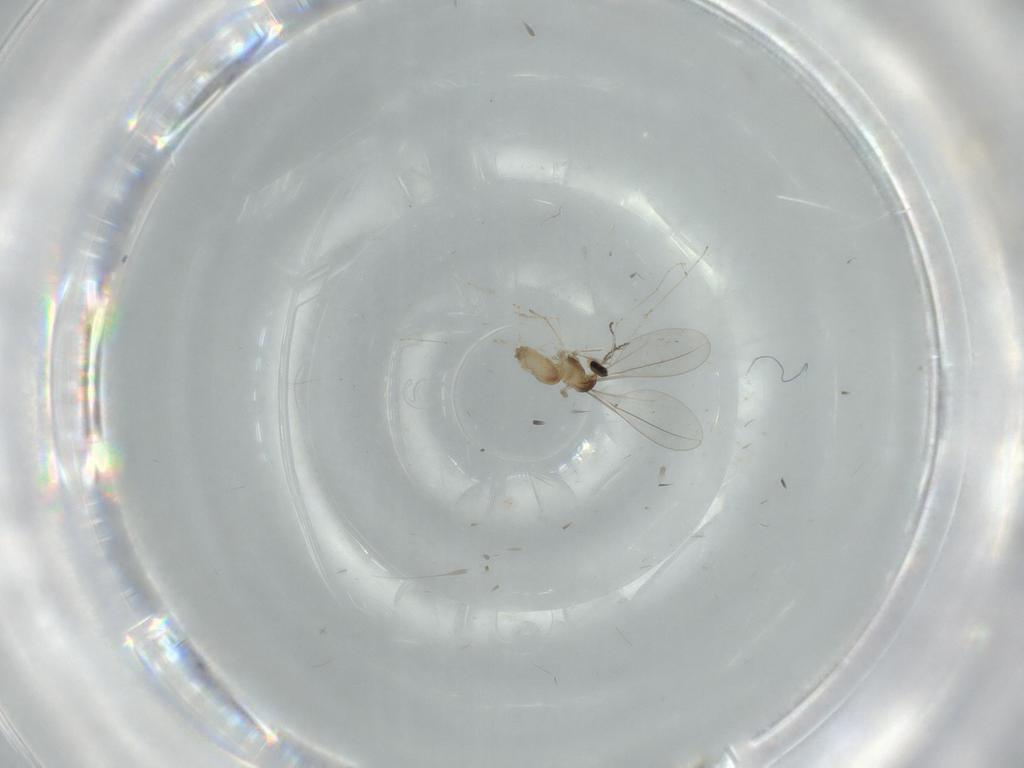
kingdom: Animalia
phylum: Arthropoda
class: Insecta
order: Diptera
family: Cecidomyiidae
